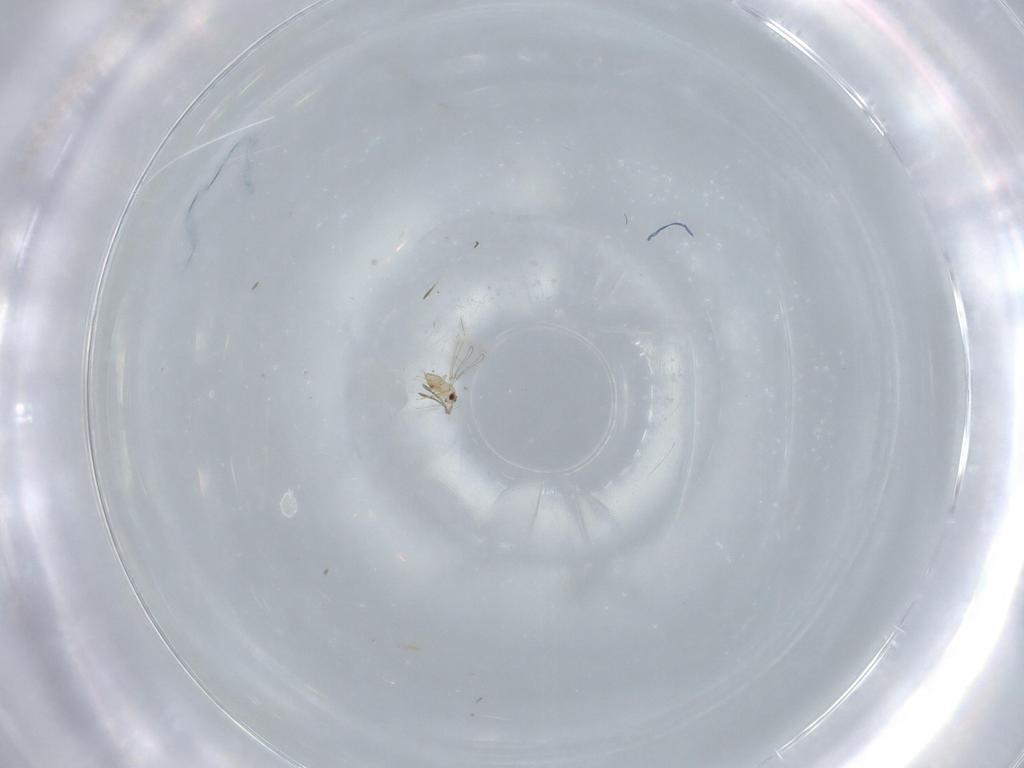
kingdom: Animalia
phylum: Arthropoda
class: Insecta
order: Hymenoptera
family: Mymaridae
